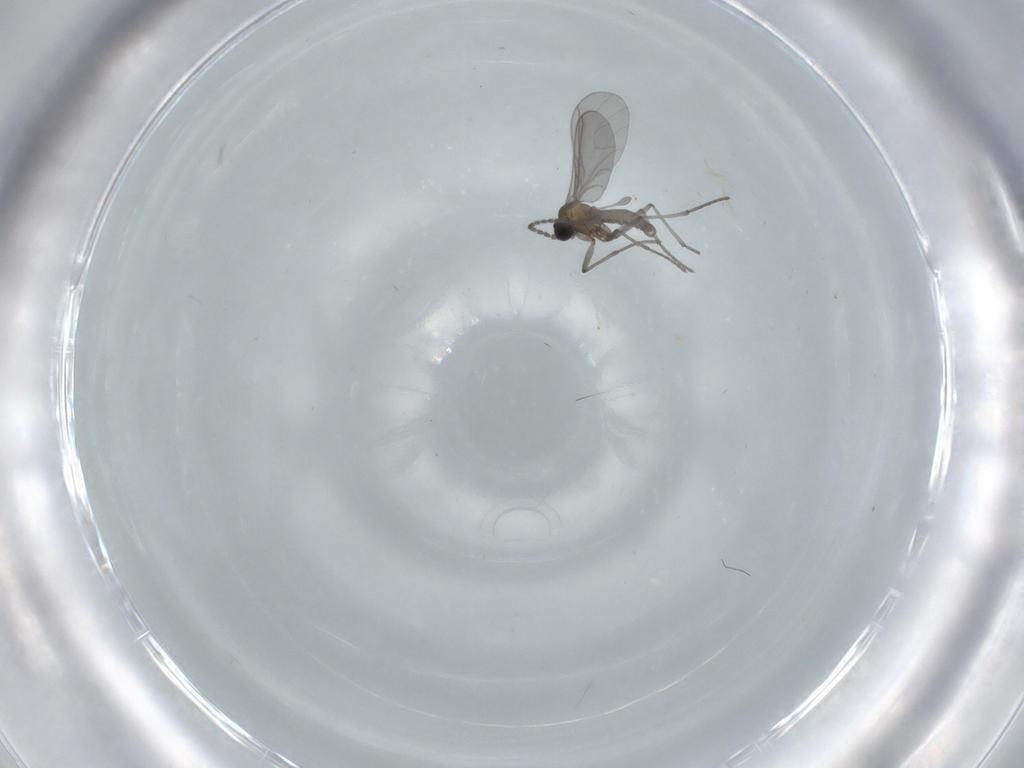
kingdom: Animalia
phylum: Arthropoda
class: Insecta
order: Diptera
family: Sciaridae
